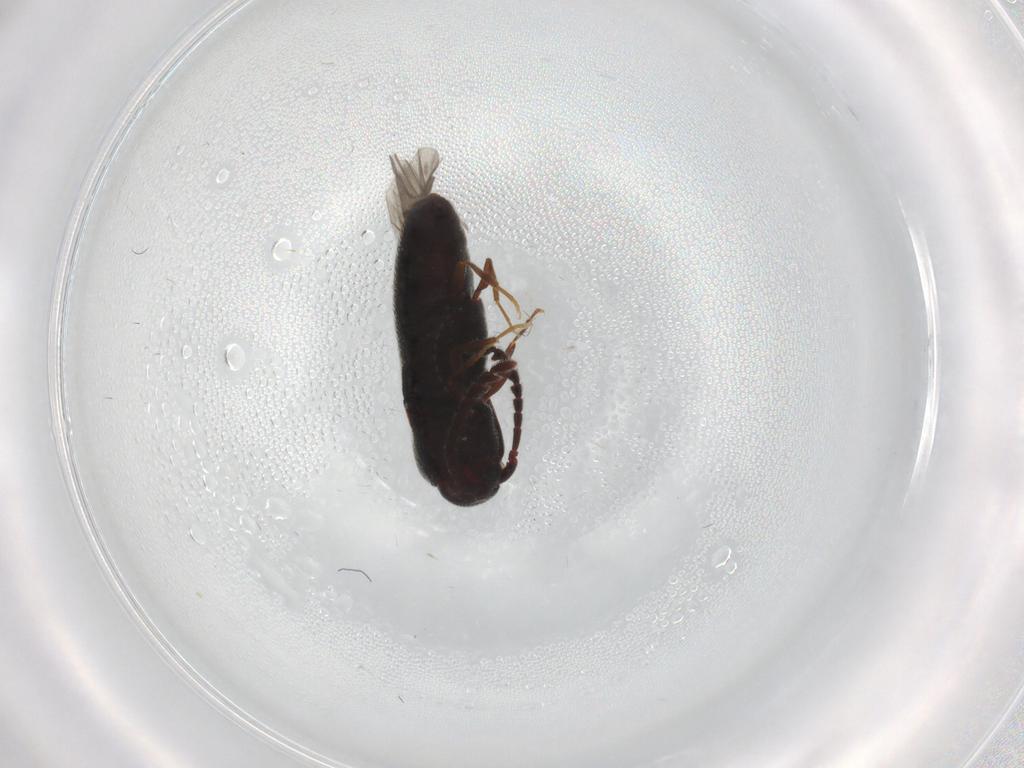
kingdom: Animalia
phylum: Arthropoda
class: Insecta
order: Coleoptera
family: Eucnemidae
